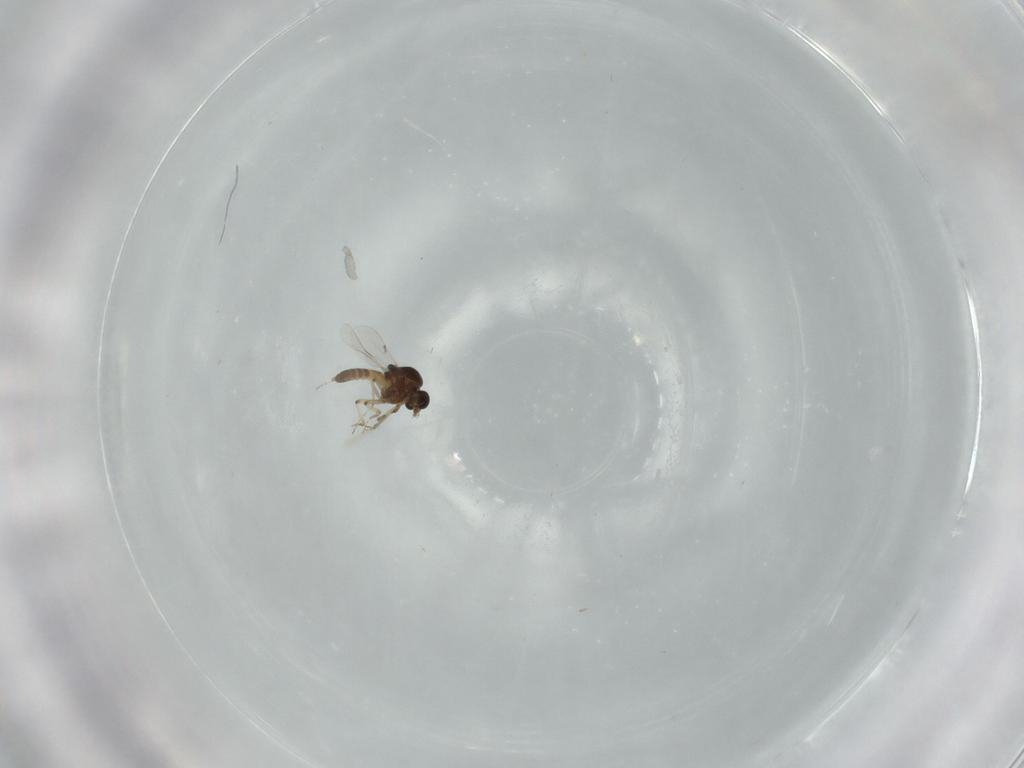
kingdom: Animalia
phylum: Arthropoda
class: Insecta
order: Diptera
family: Ceratopogonidae
